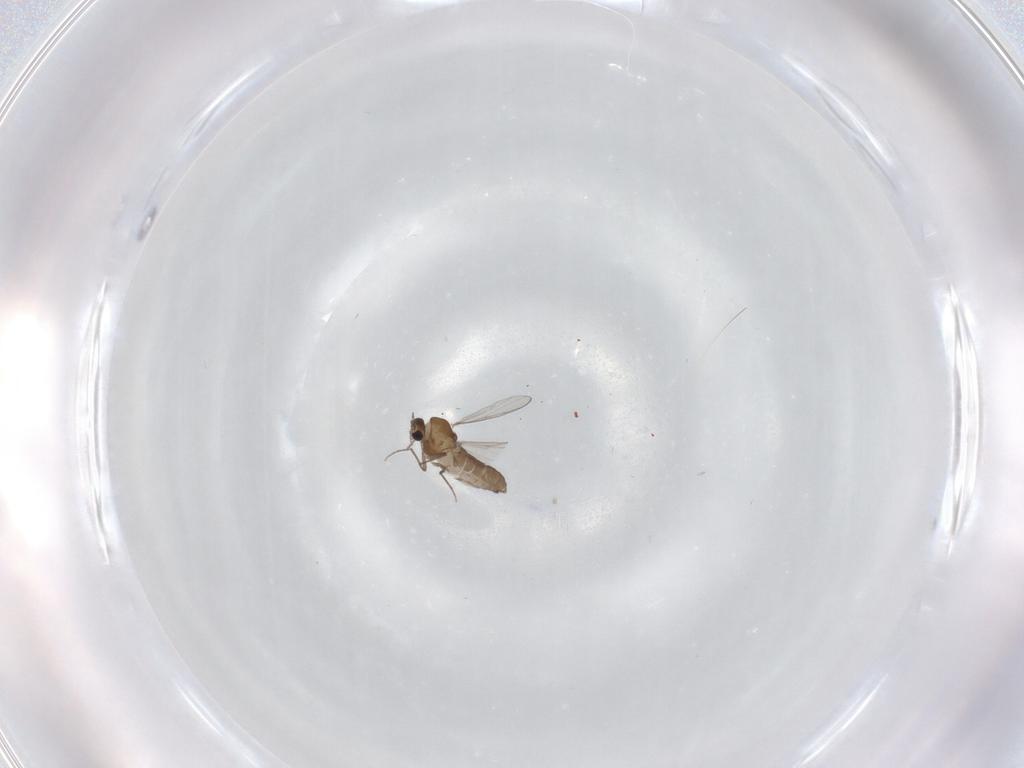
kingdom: Animalia
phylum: Arthropoda
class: Insecta
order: Diptera
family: Chironomidae
